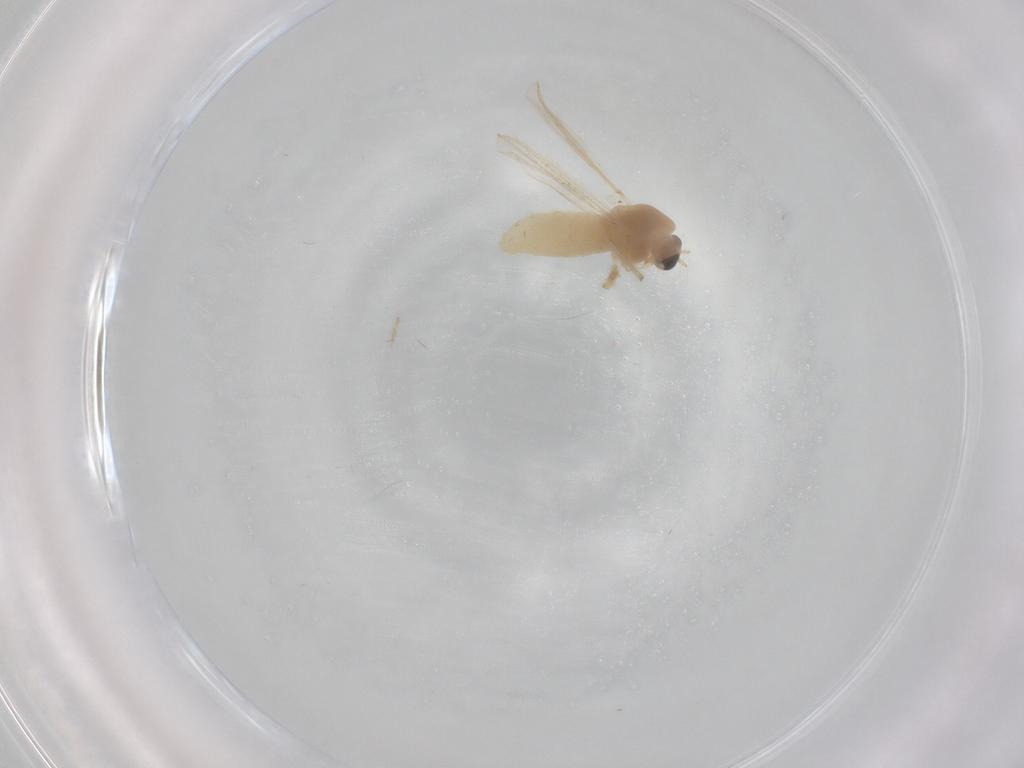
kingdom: Animalia
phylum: Arthropoda
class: Insecta
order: Diptera
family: Chironomidae
